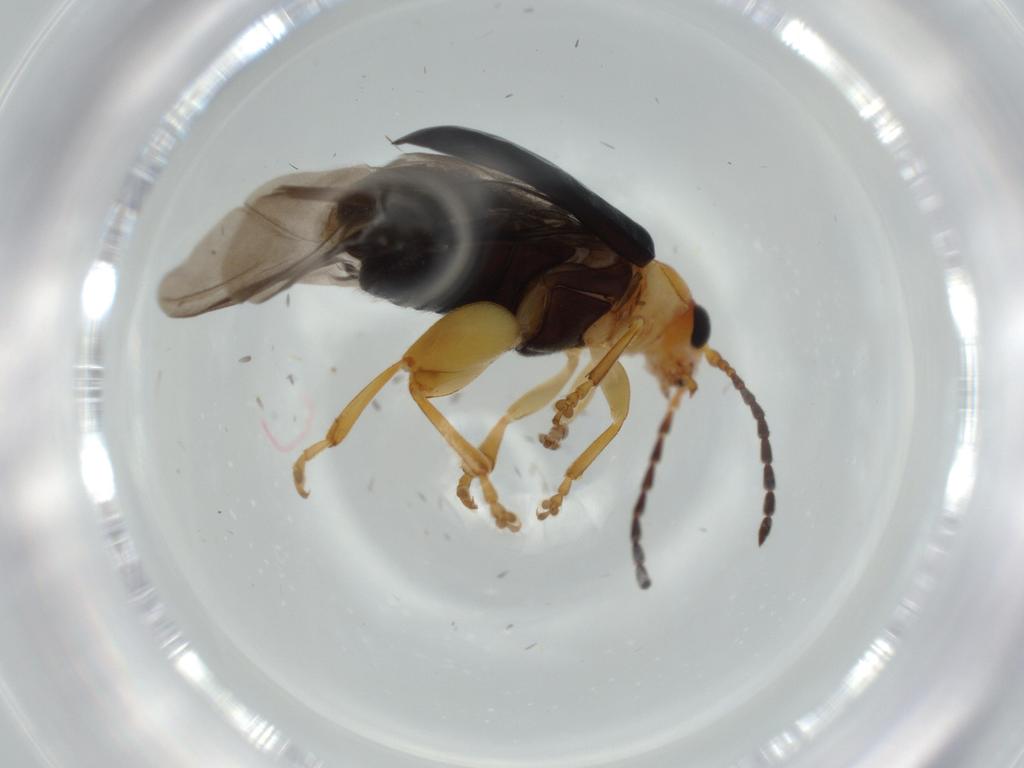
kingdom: Animalia
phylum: Arthropoda
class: Insecta
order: Coleoptera
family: Chrysomelidae
